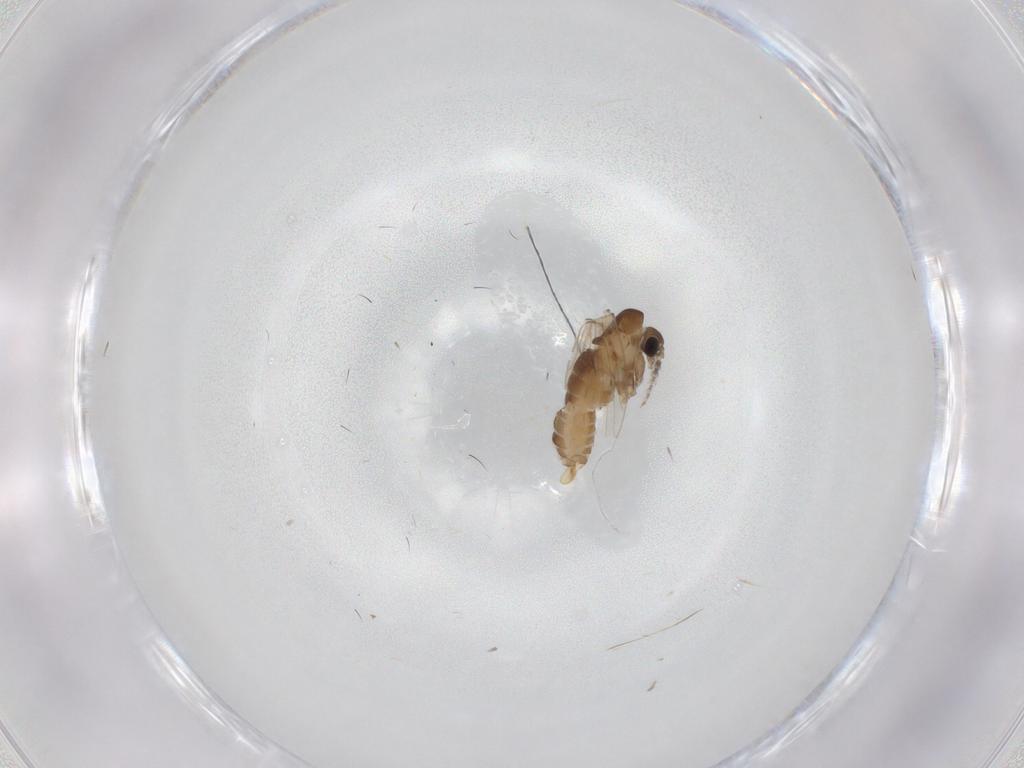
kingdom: Animalia
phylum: Arthropoda
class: Insecta
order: Diptera
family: Psychodidae
